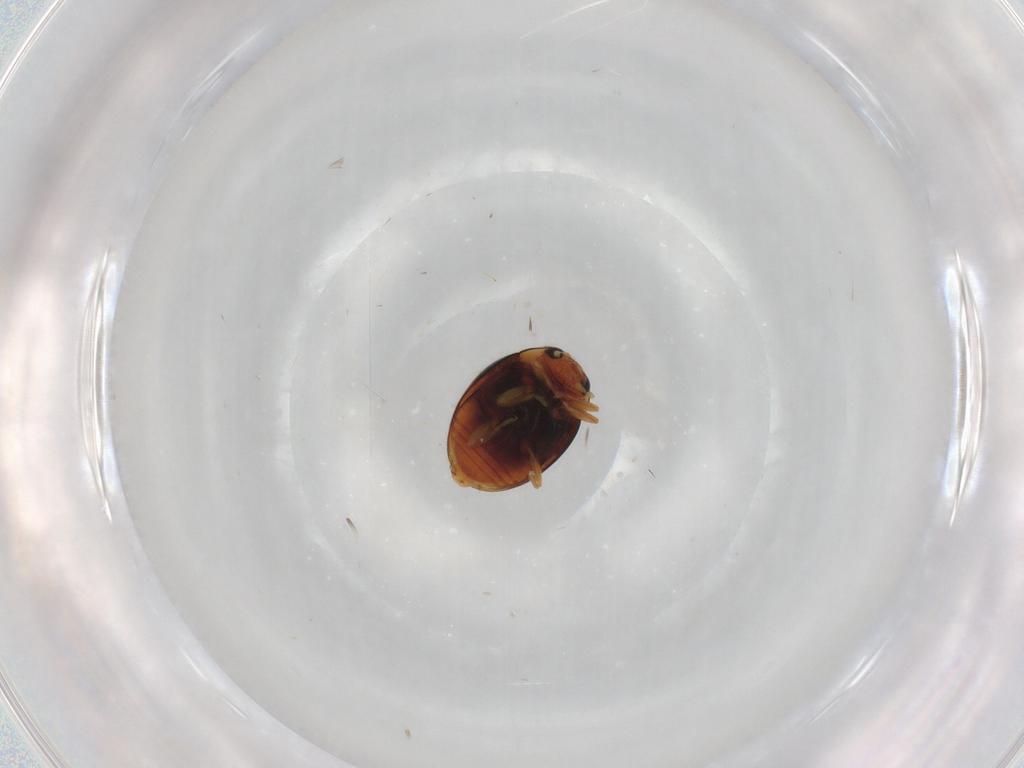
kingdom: Animalia
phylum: Arthropoda
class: Insecta
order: Coleoptera
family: Coccinellidae
